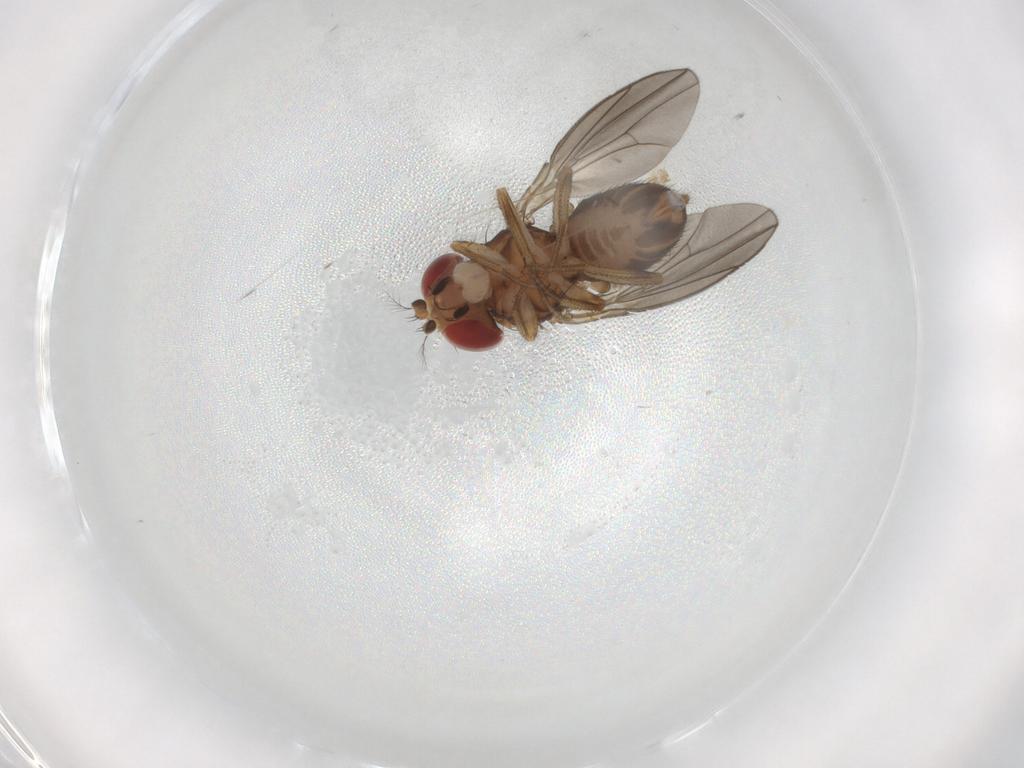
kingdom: Animalia
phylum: Arthropoda
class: Insecta
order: Diptera
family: Drosophilidae
